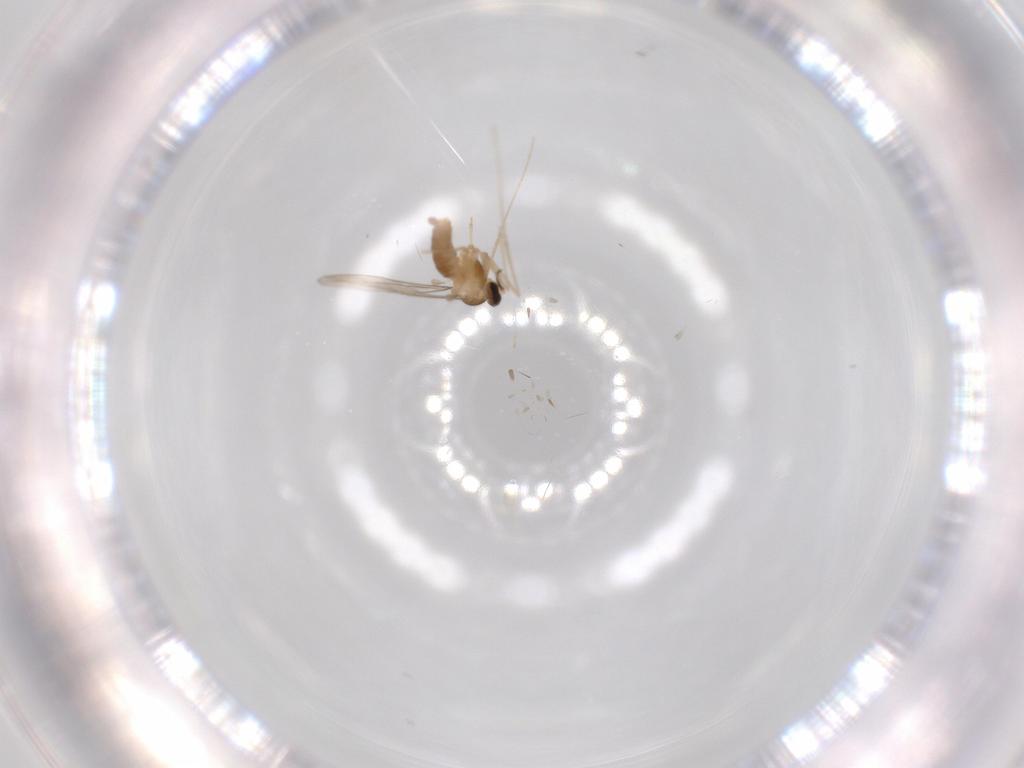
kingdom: Animalia
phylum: Arthropoda
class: Insecta
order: Diptera
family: Cecidomyiidae
